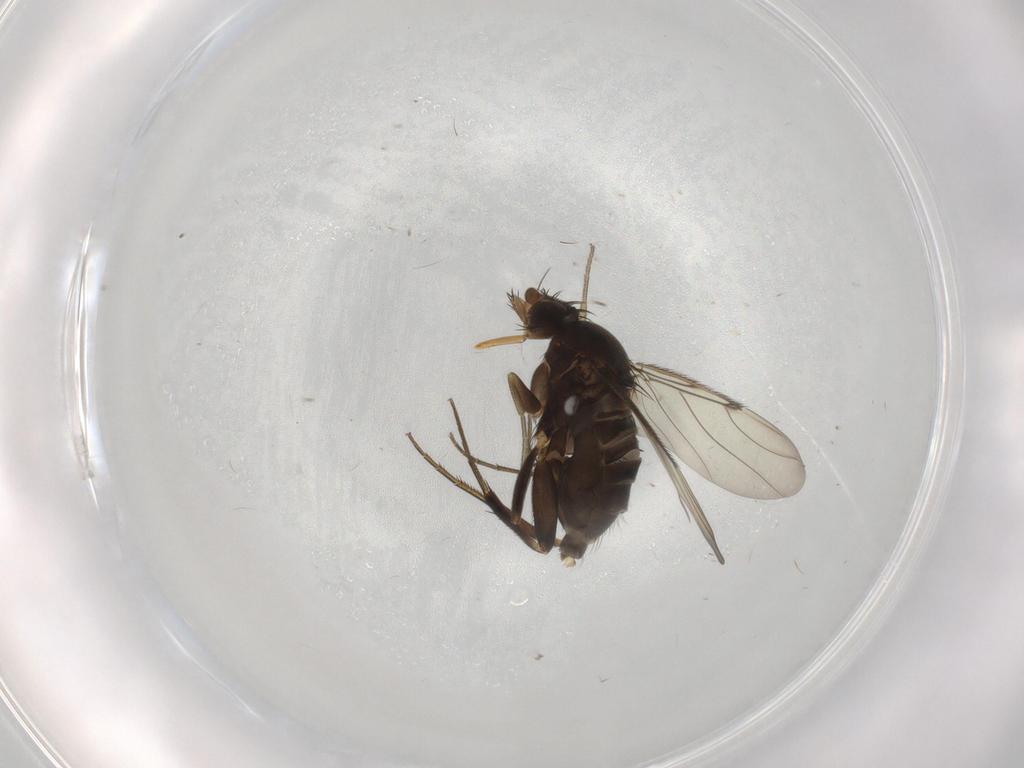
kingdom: Animalia
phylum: Arthropoda
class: Insecta
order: Diptera
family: Phoridae
